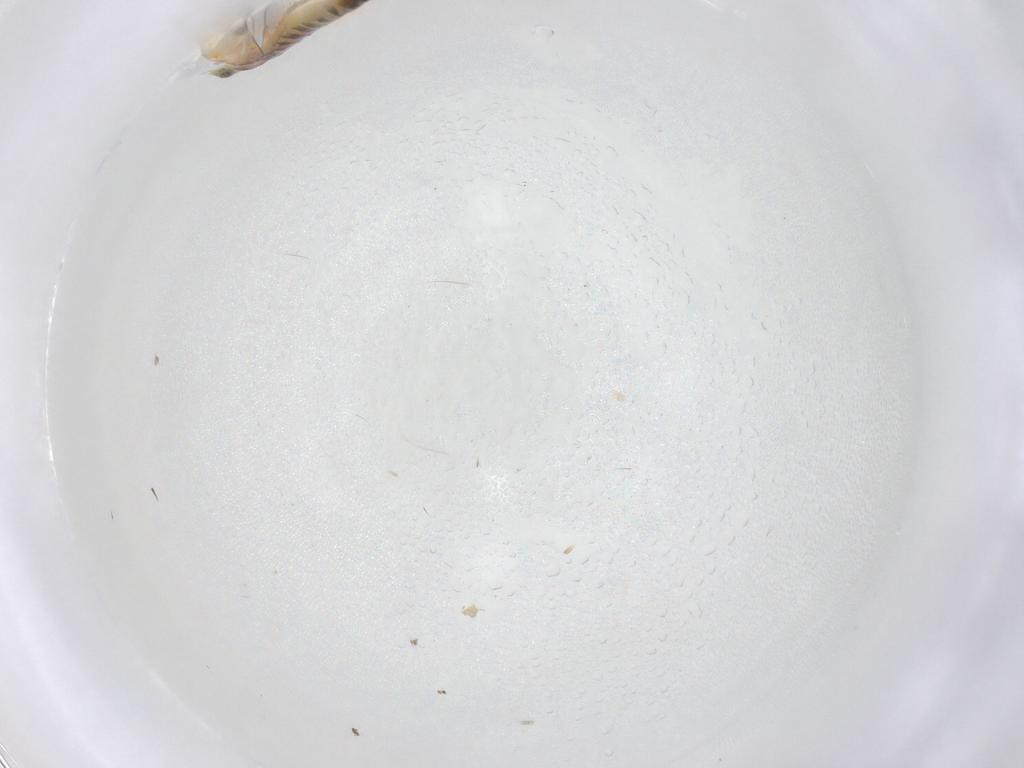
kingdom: Animalia
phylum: Arthropoda
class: Insecta
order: Hemiptera
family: Cicadellidae
